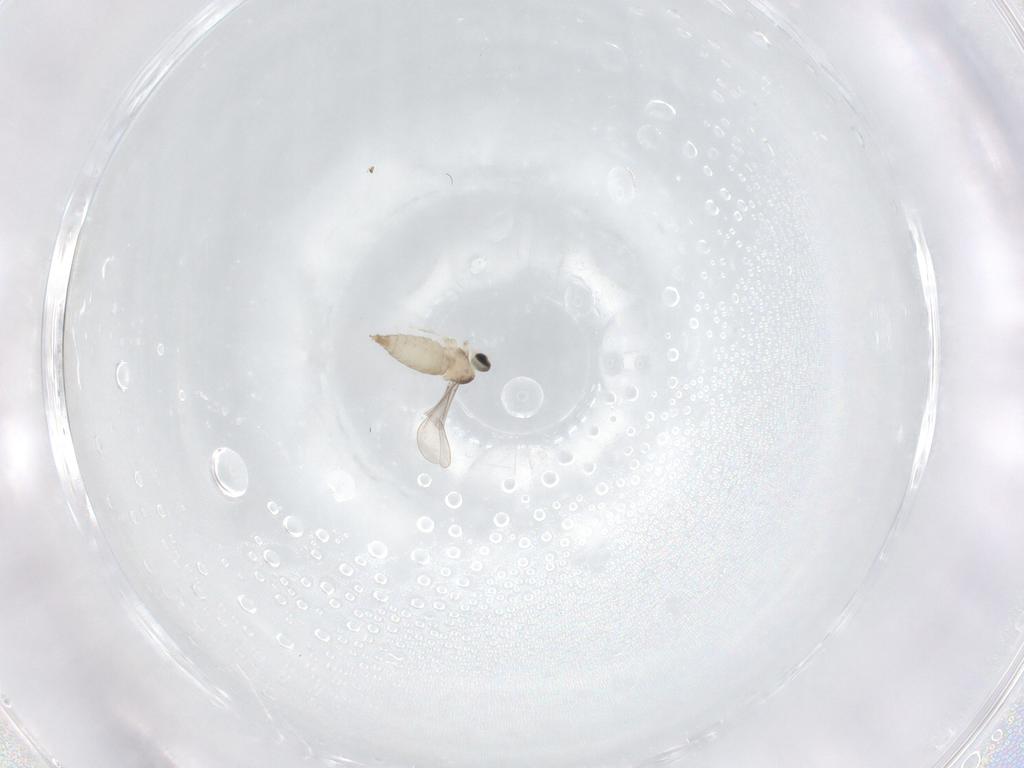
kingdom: Animalia
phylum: Arthropoda
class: Insecta
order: Diptera
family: Cecidomyiidae
